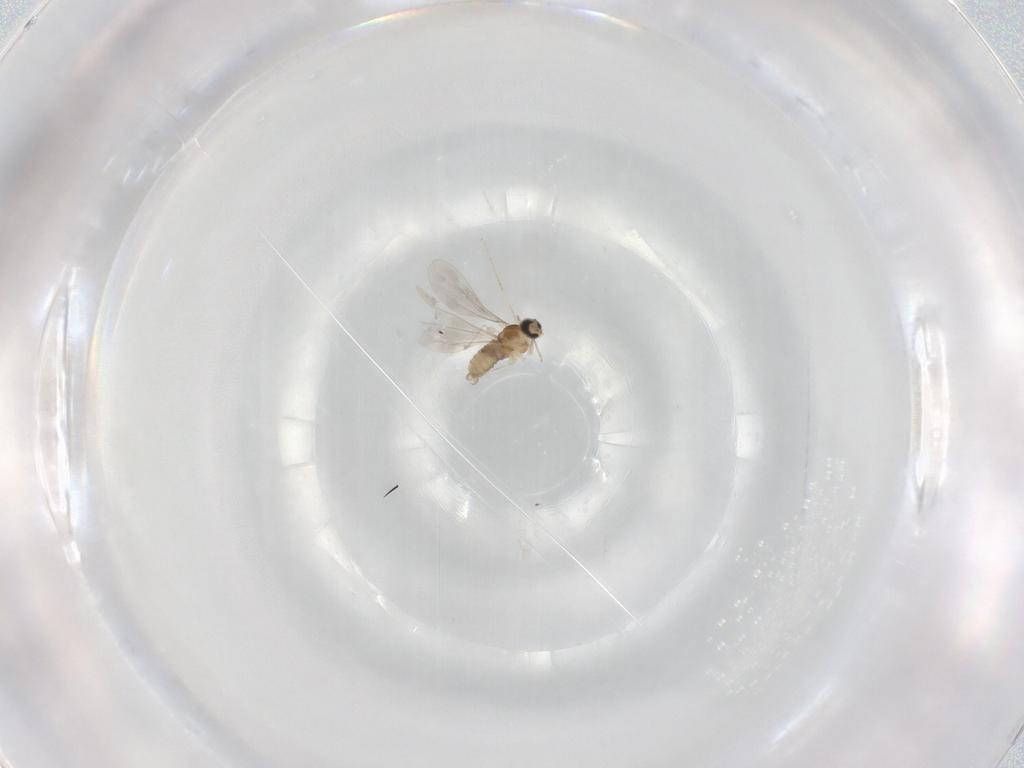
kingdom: Animalia
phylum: Arthropoda
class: Insecta
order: Diptera
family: Cecidomyiidae
